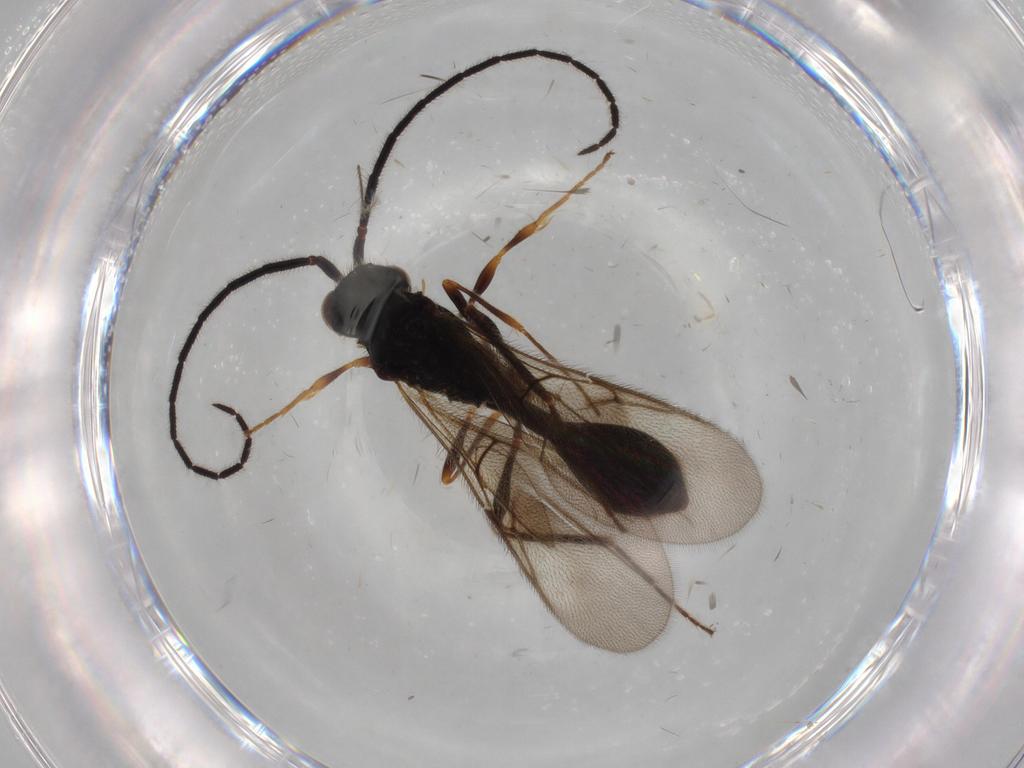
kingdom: Animalia
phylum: Arthropoda
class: Insecta
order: Hymenoptera
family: Diapriidae
